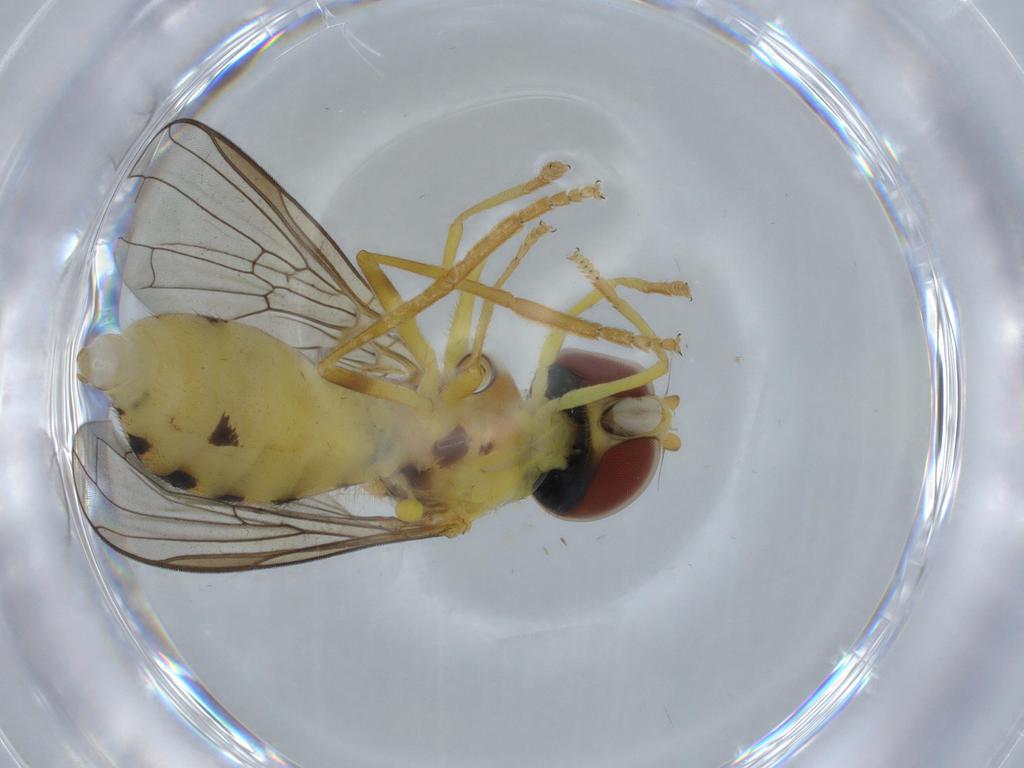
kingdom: Animalia
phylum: Arthropoda
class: Insecta
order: Diptera
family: Syrphidae
